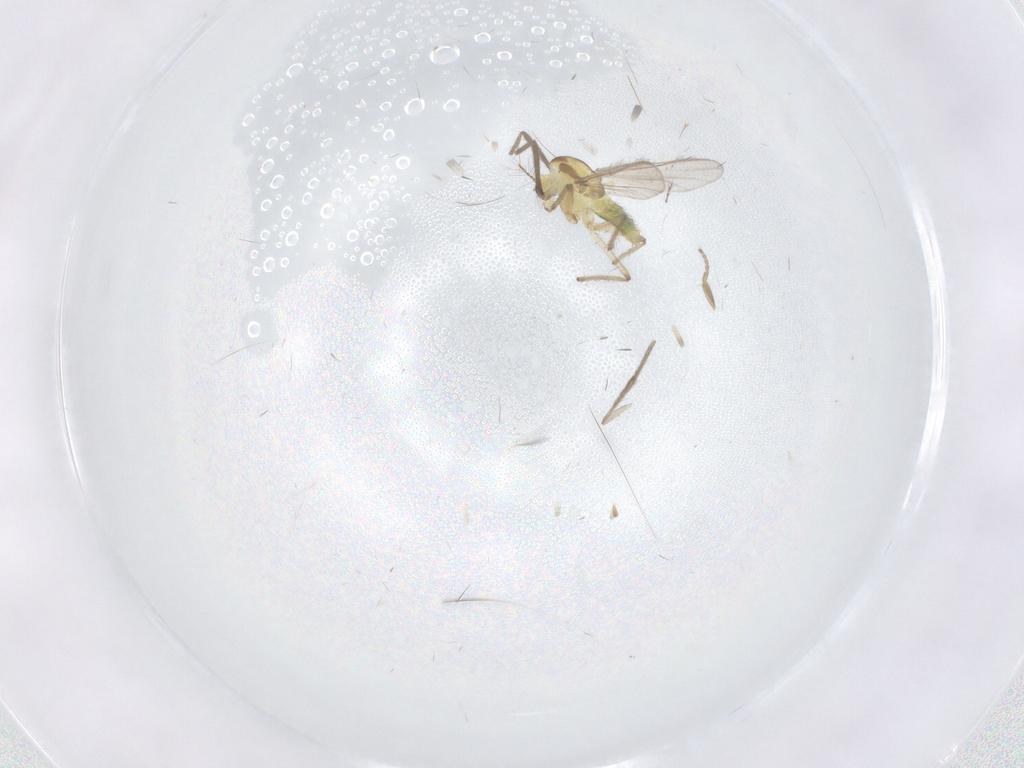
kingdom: Animalia
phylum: Arthropoda
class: Insecta
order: Diptera
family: Chironomidae
